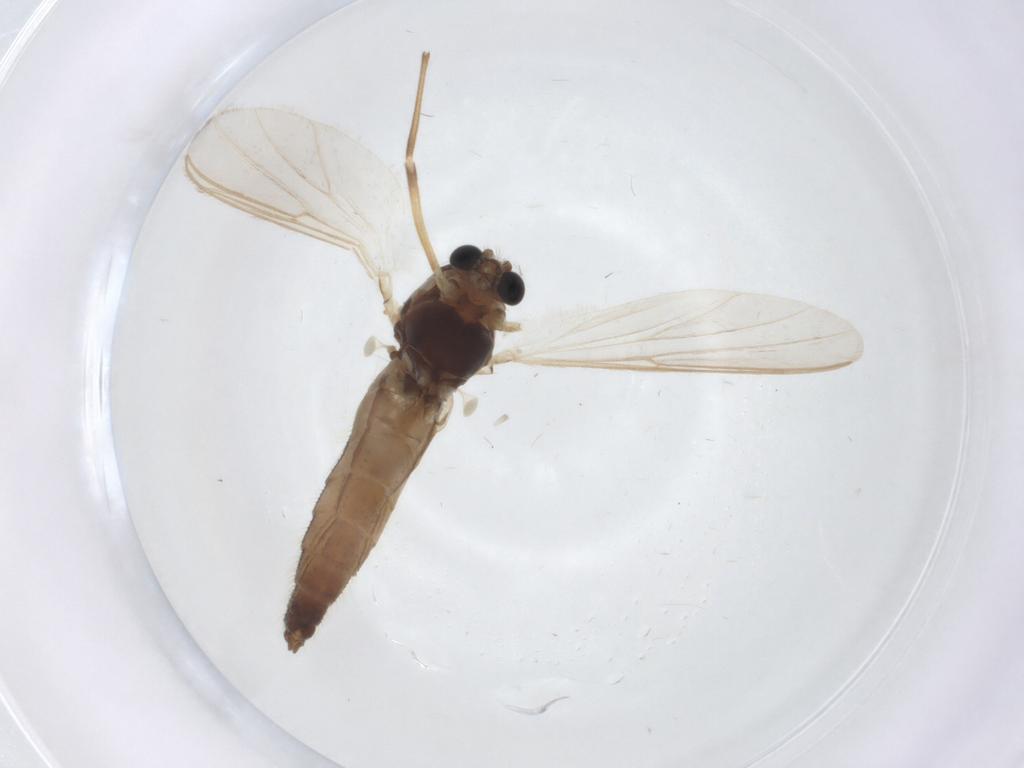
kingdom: Animalia
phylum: Arthropoda
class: Insecta
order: Diptera
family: Chironomidae
